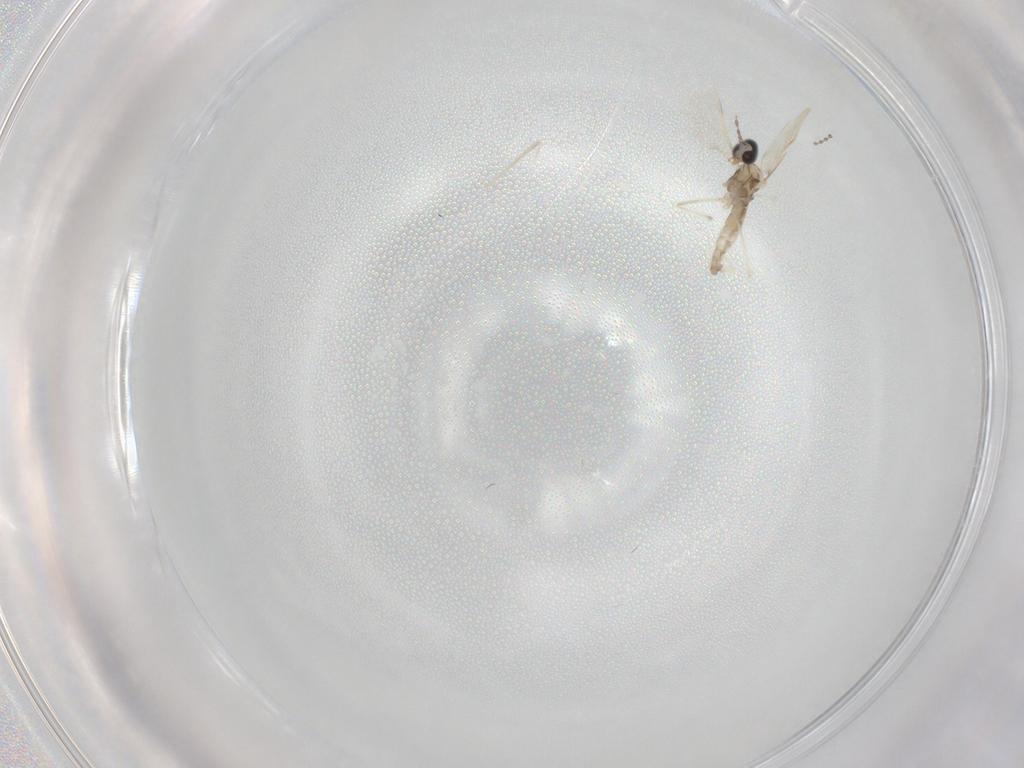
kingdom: Animalia
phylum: Arthropoda
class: Insecta
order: Diptera
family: Cecidomyiidae
